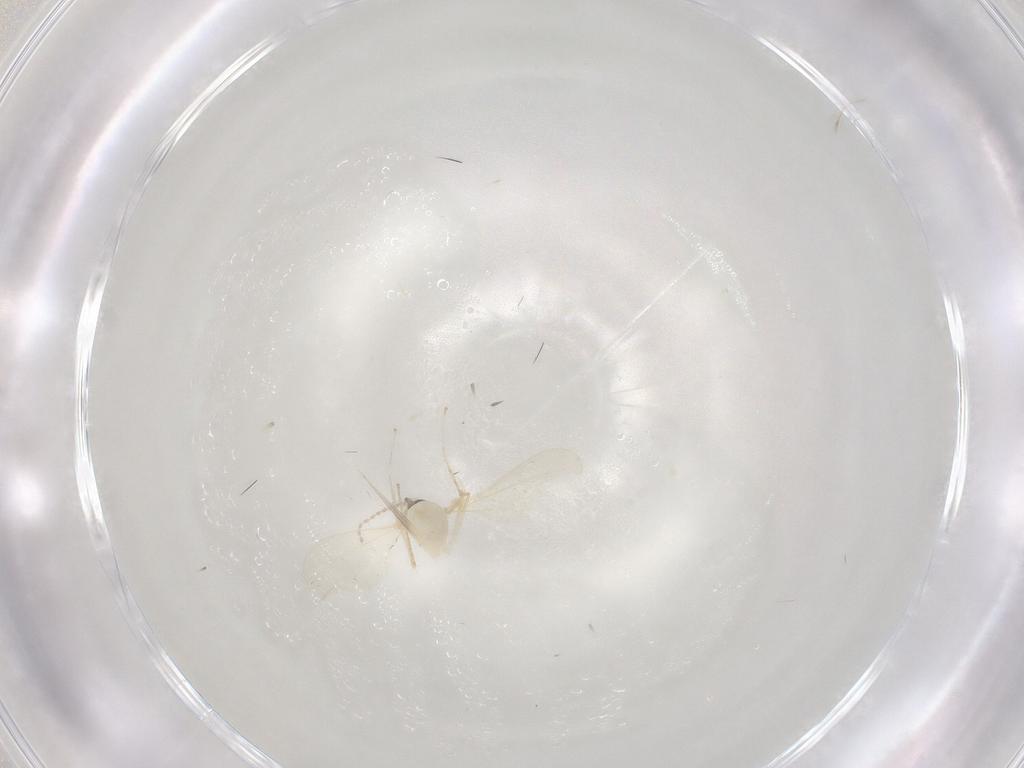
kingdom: Animalia
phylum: Arthropoda
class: Insecta
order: Diptera
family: Cecidomyiidae
